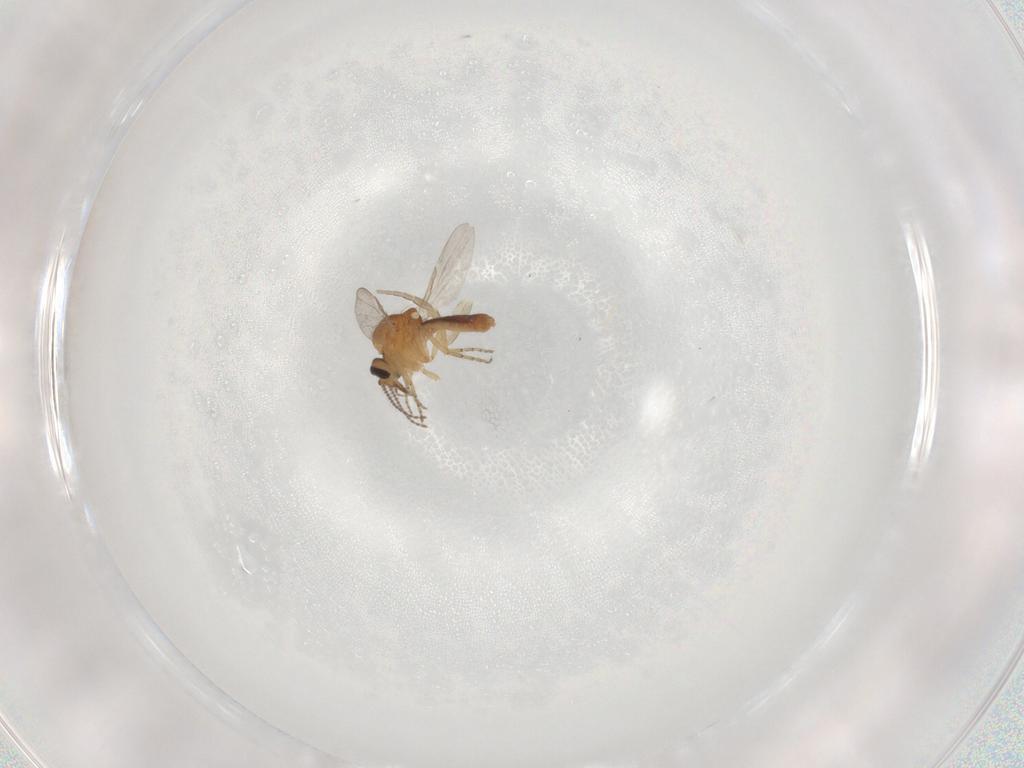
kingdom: Animalia
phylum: Arthropoda
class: Insecta
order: Diptera
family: Ceratopogonidae
